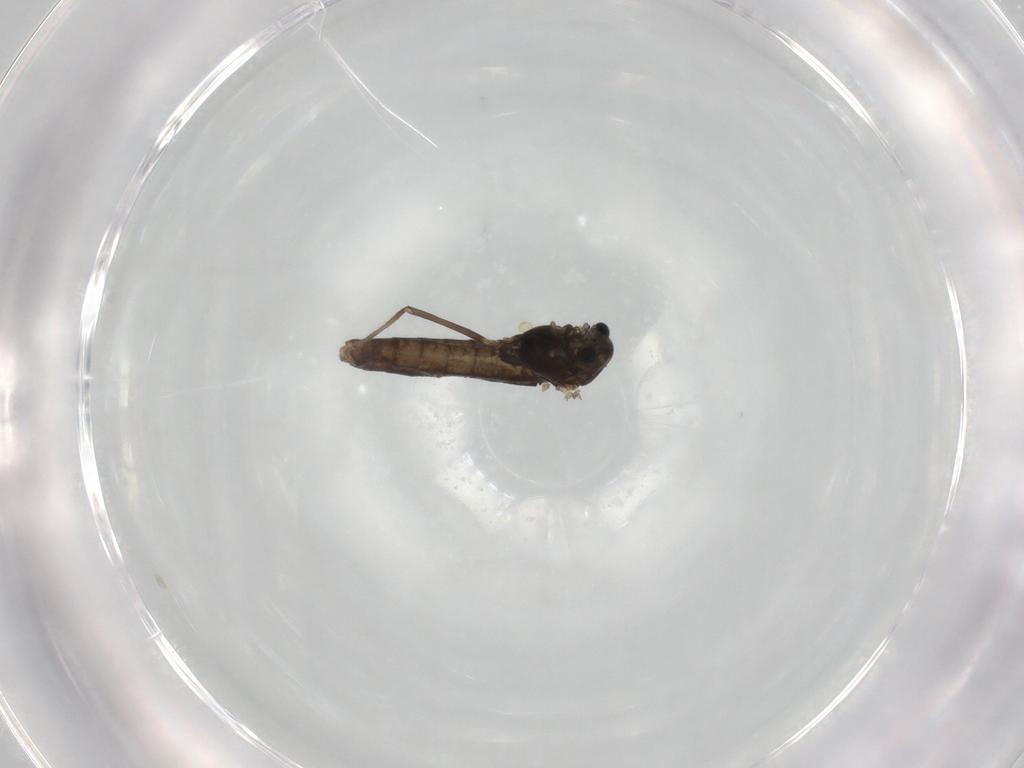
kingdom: Animalia
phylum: Arthropoda
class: Insecta
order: Diptera
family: Chironomidae
